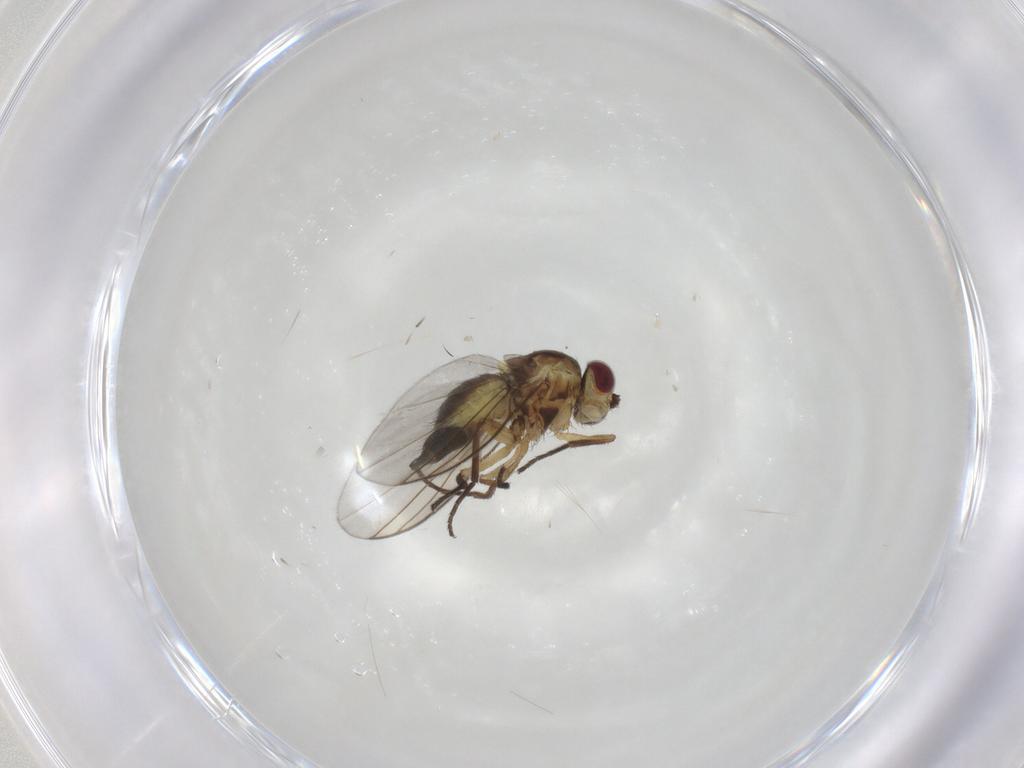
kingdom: Animalia
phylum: Arthropoda
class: Insecta
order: Diptera
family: Agromyzidae
